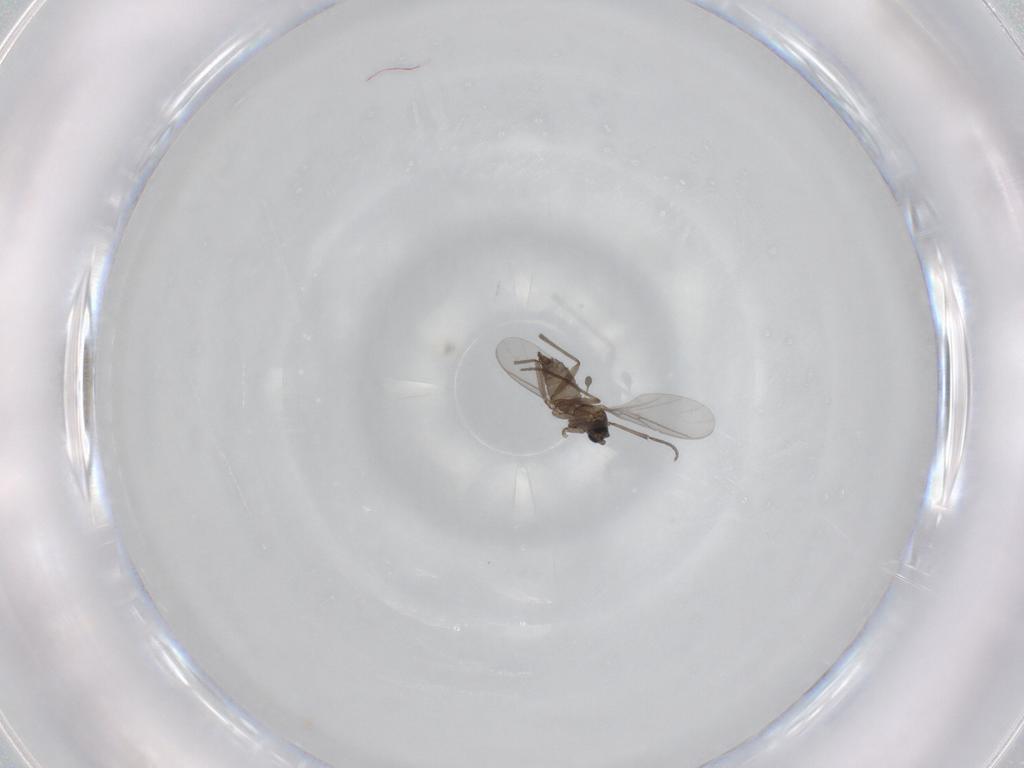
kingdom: Animalia
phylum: Arthropoda
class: Insecta
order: Diptera
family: Sciaridae
